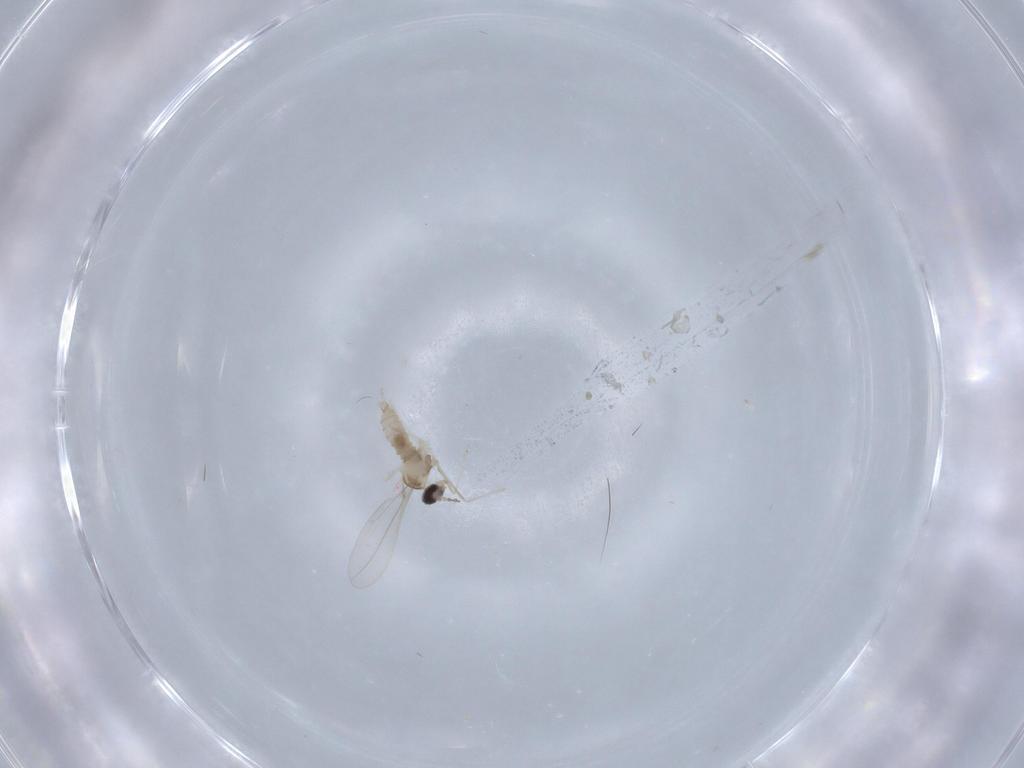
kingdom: Animalia
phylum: Arthropoda
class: Insecta
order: Diptera
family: Cecidomyiidae
